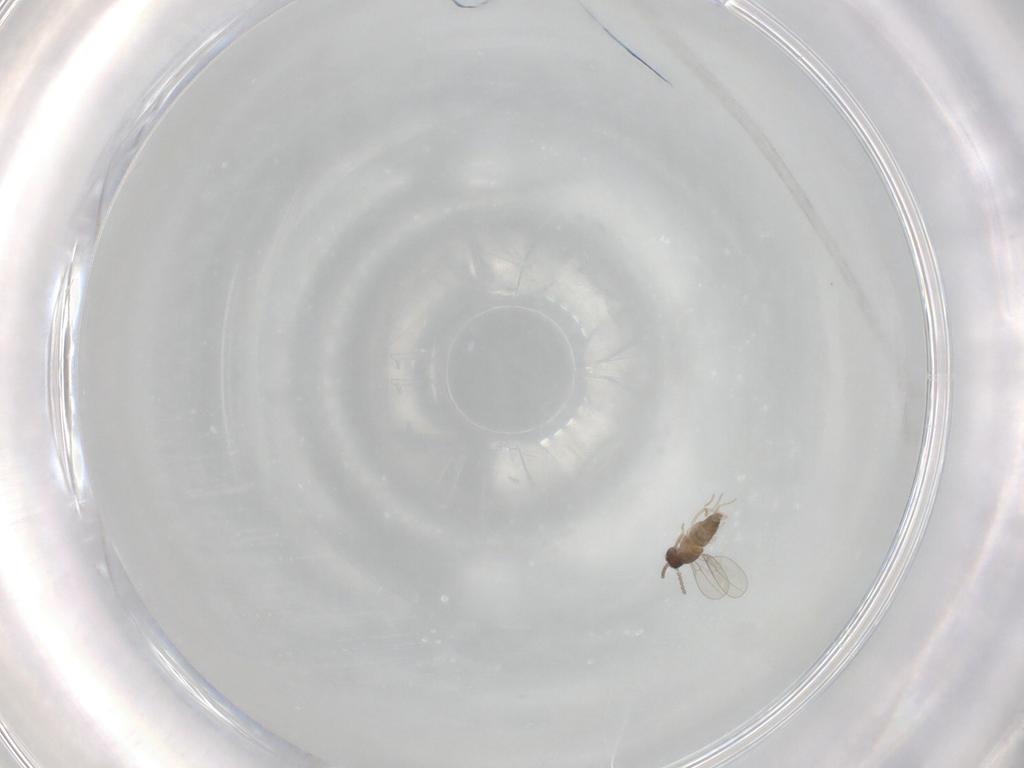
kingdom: Animalia
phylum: Arthropoda
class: Insecta
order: Diptera
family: Cecidomyiidae
